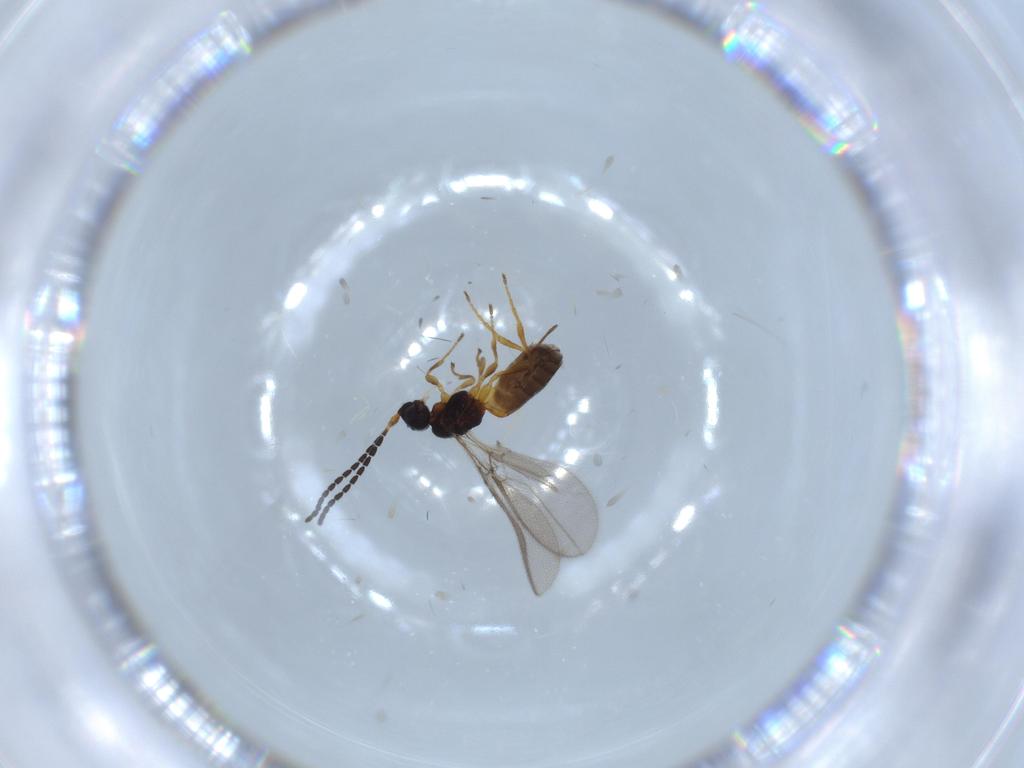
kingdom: Animalia
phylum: Arthropoda
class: Insecta
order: Hymenoptera
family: Braconidae
